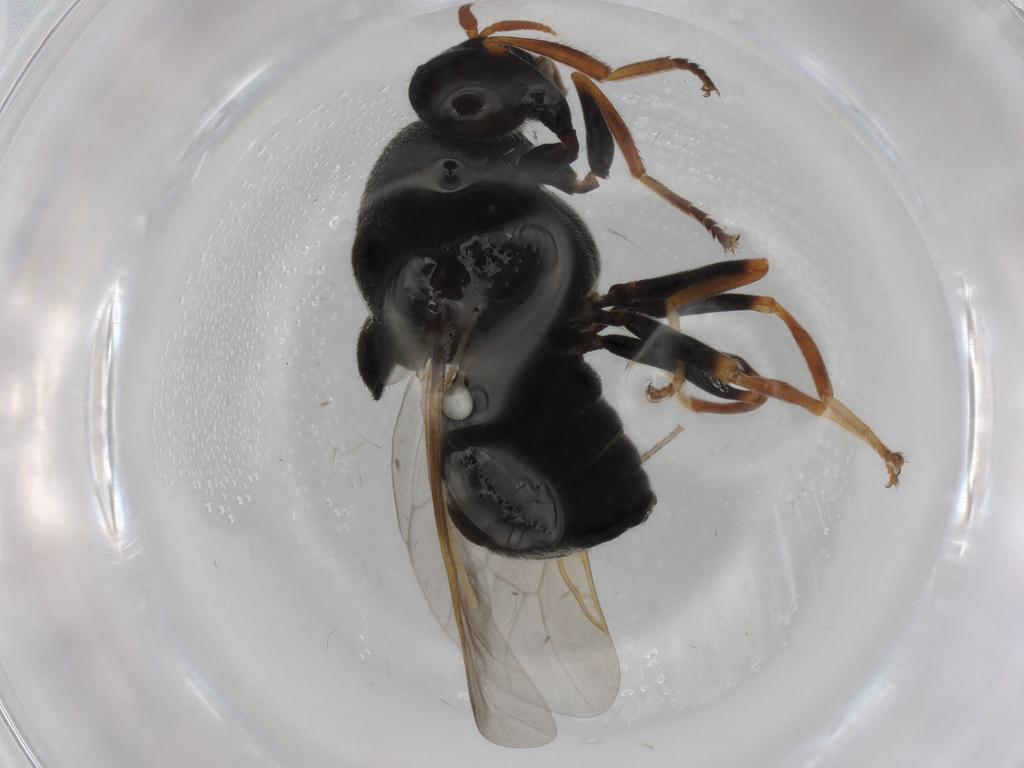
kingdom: Animalia
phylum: Arthropoda
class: Insecta
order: Diptera
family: Stratiomyidae
